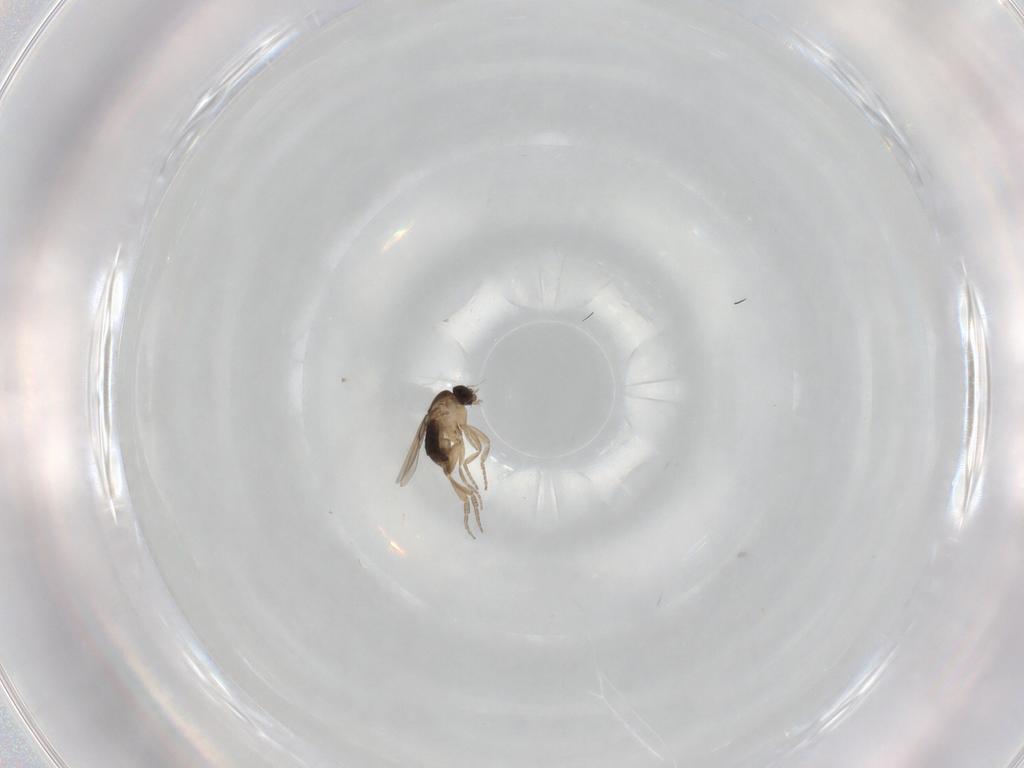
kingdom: Animalia
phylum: Arthropoda
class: Insecta
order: Diptera
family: Phoridae
